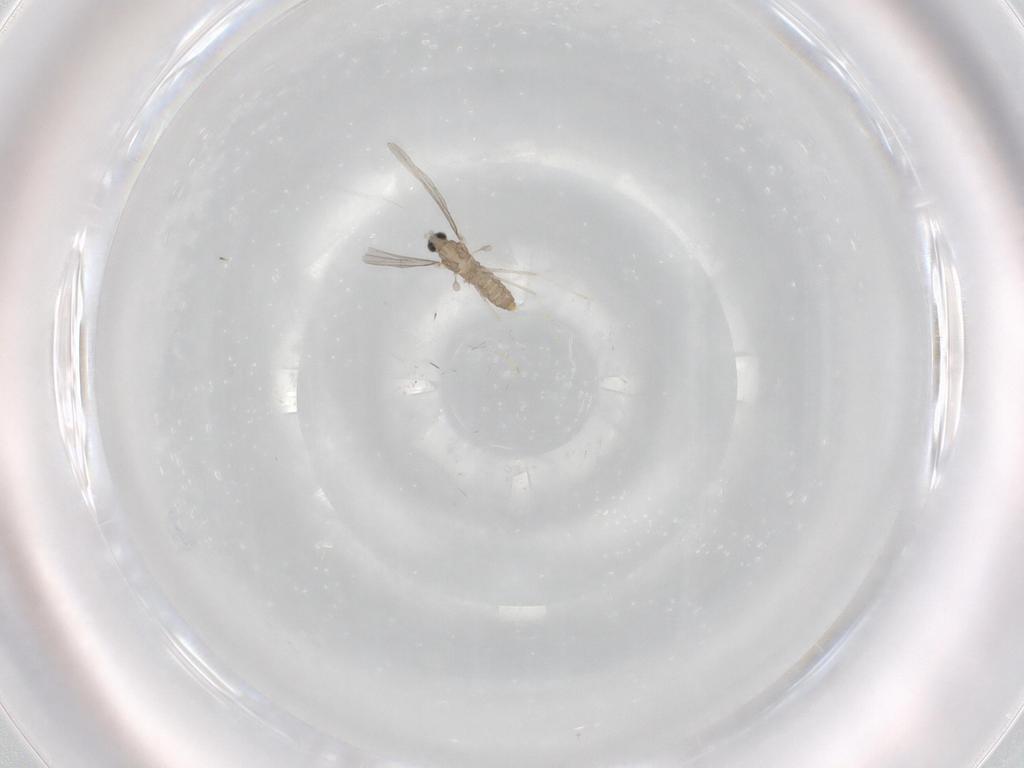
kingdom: Animalia
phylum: Arthropoda
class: Insecta
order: Diptera
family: Cecidomyiidae
